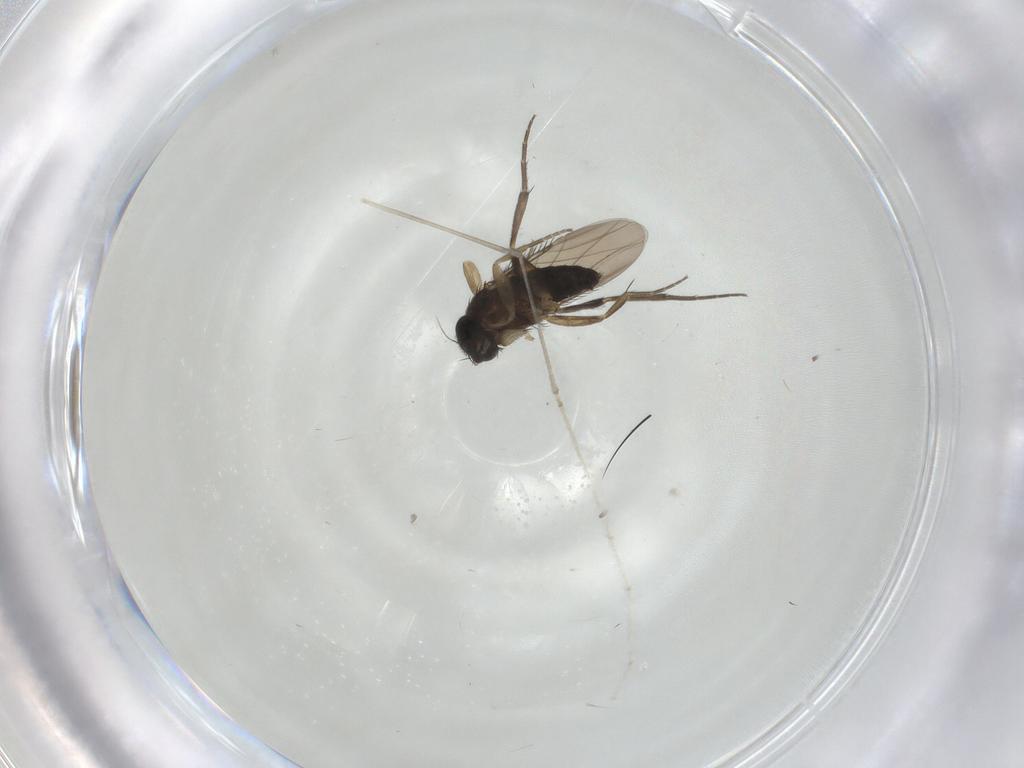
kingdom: Animalia
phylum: Arthropoda
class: Insecta
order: Diptera
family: Phoridae
